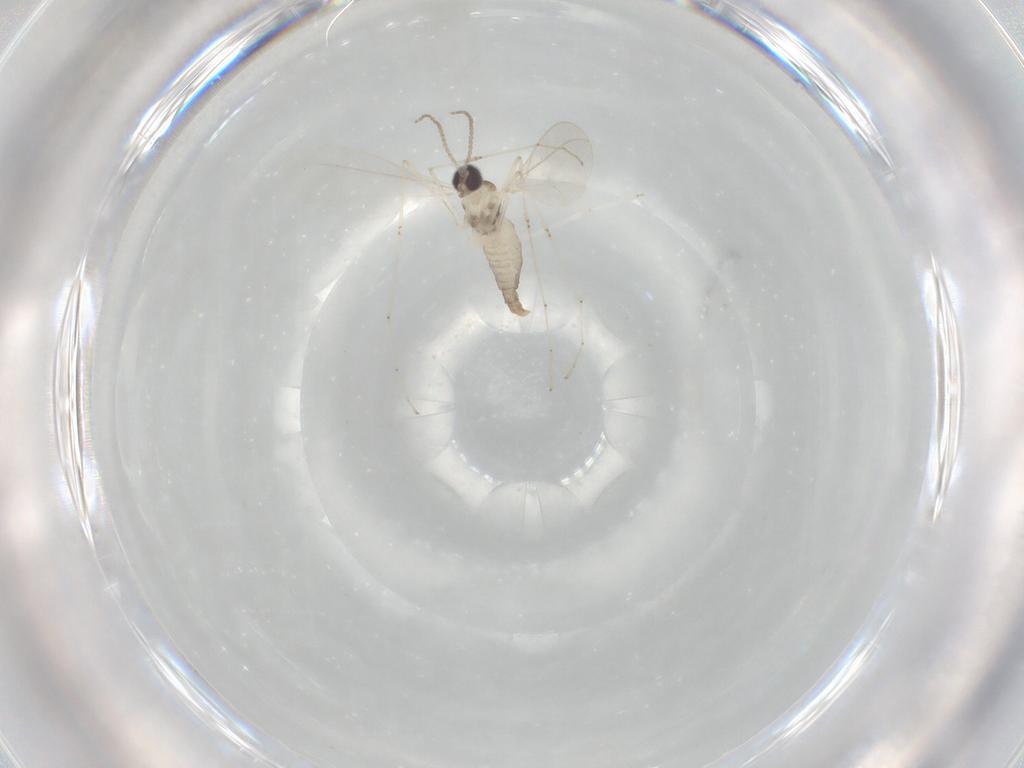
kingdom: Animalia
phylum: Arthropoda
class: Insecta
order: Diptera
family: Cecidomyiidae
